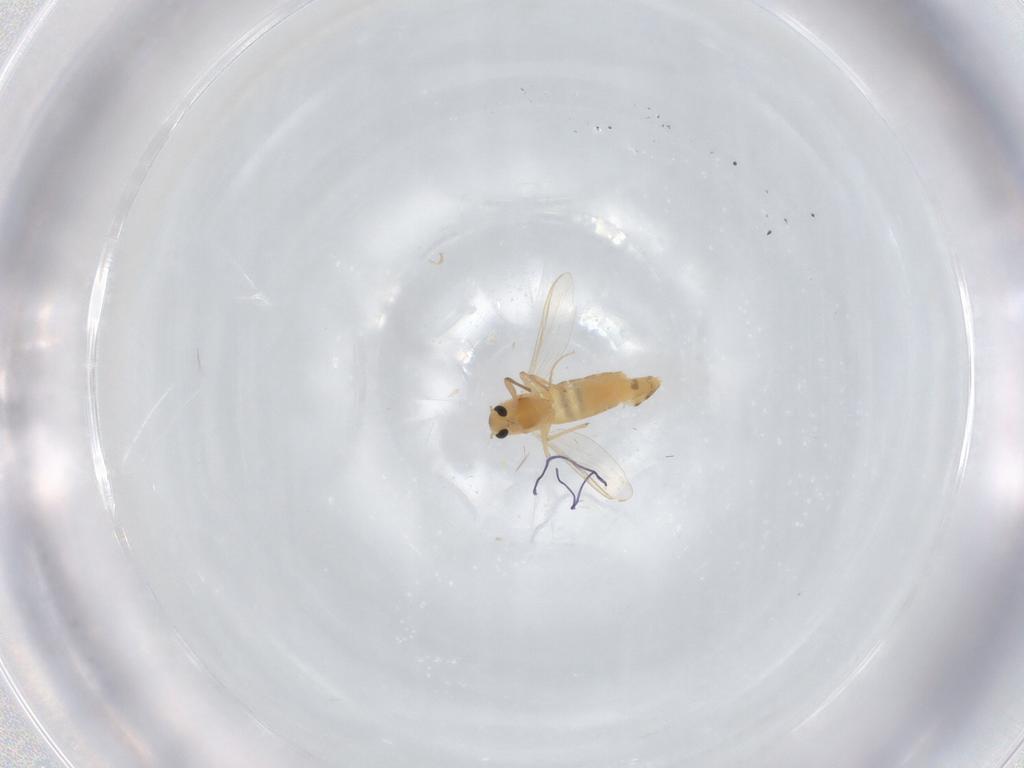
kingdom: Animalia
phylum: Arthropoda
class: Insecta
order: Diptera
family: Chironomidae
